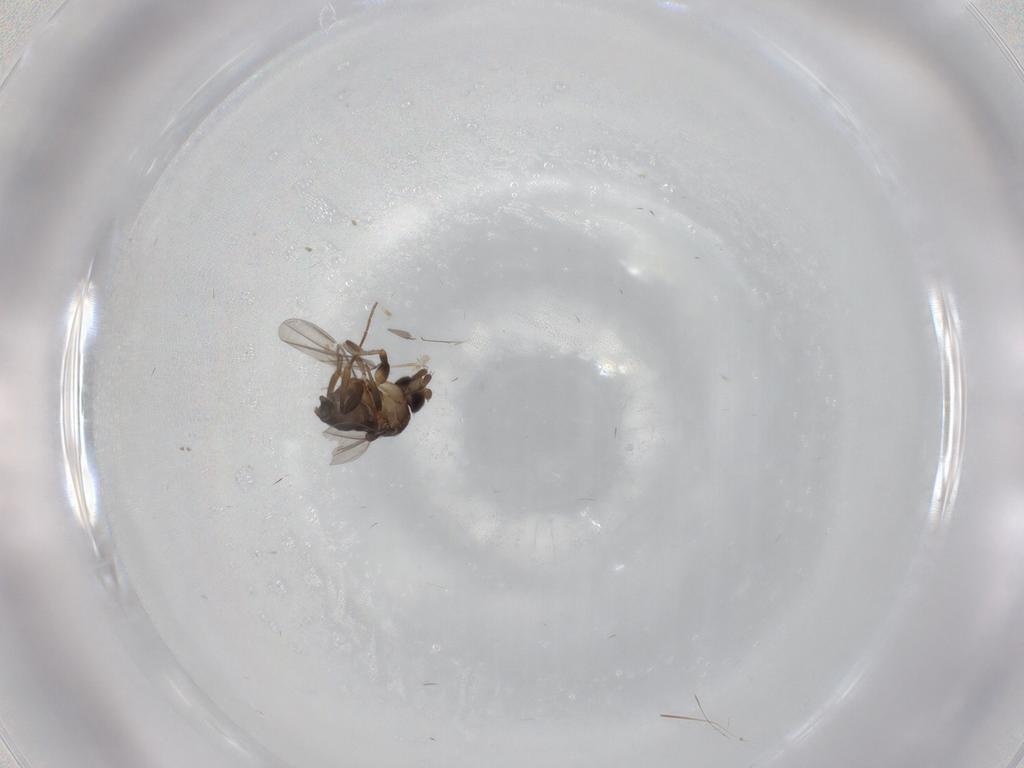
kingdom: Animalia
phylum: Arthropoda
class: Insecta
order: Diptera
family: Phoridae
